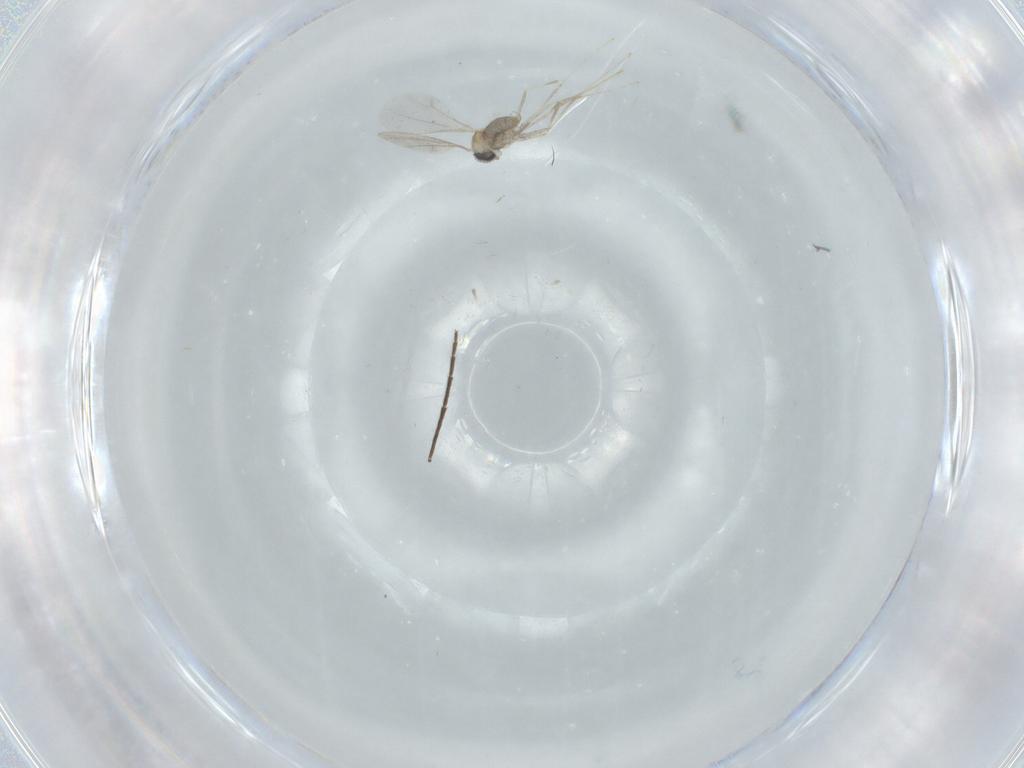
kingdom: Animalia
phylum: Arthropoda
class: Insecta
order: Diptera
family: Cecidomyiidae
